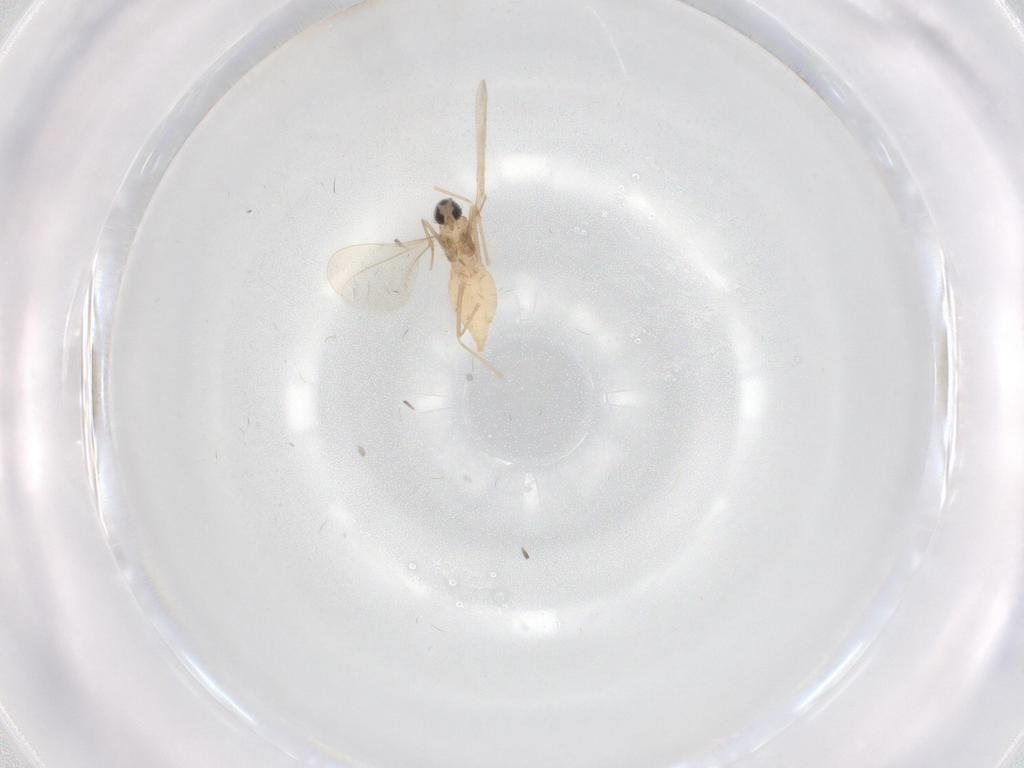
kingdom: Animalia
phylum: Arthropoda
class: Insecta
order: Diptera
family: Cecidomyiidae
